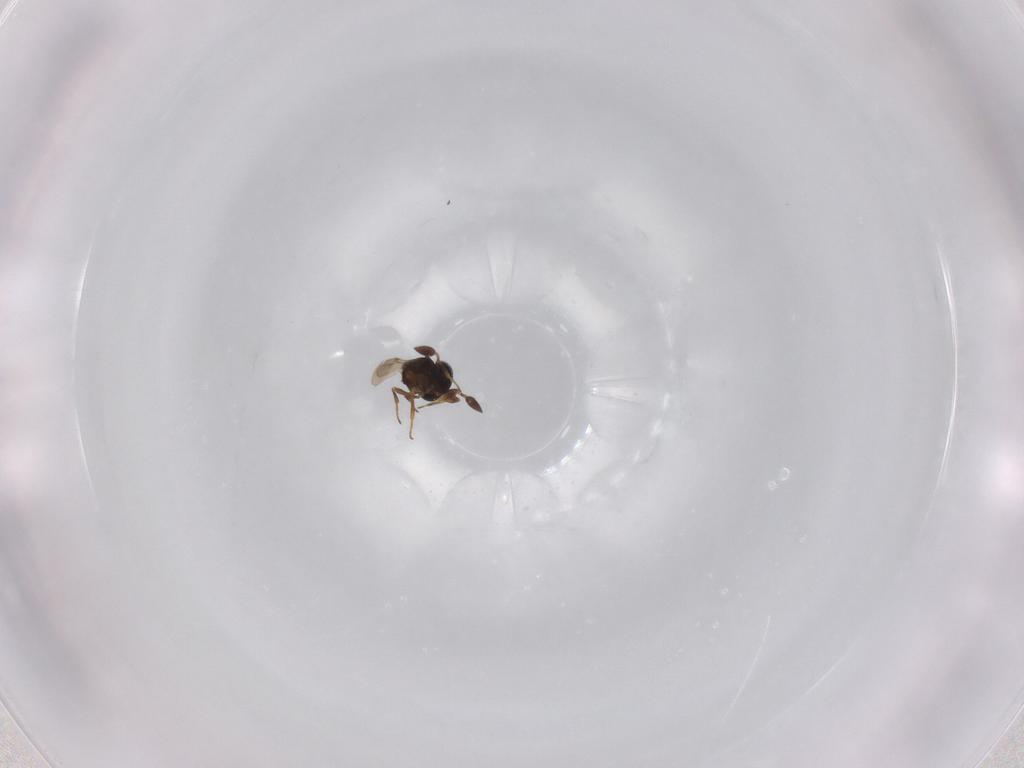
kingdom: Animalia
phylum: Arthropoda
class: Insecta
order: Hymenoptera
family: Scelionidae
